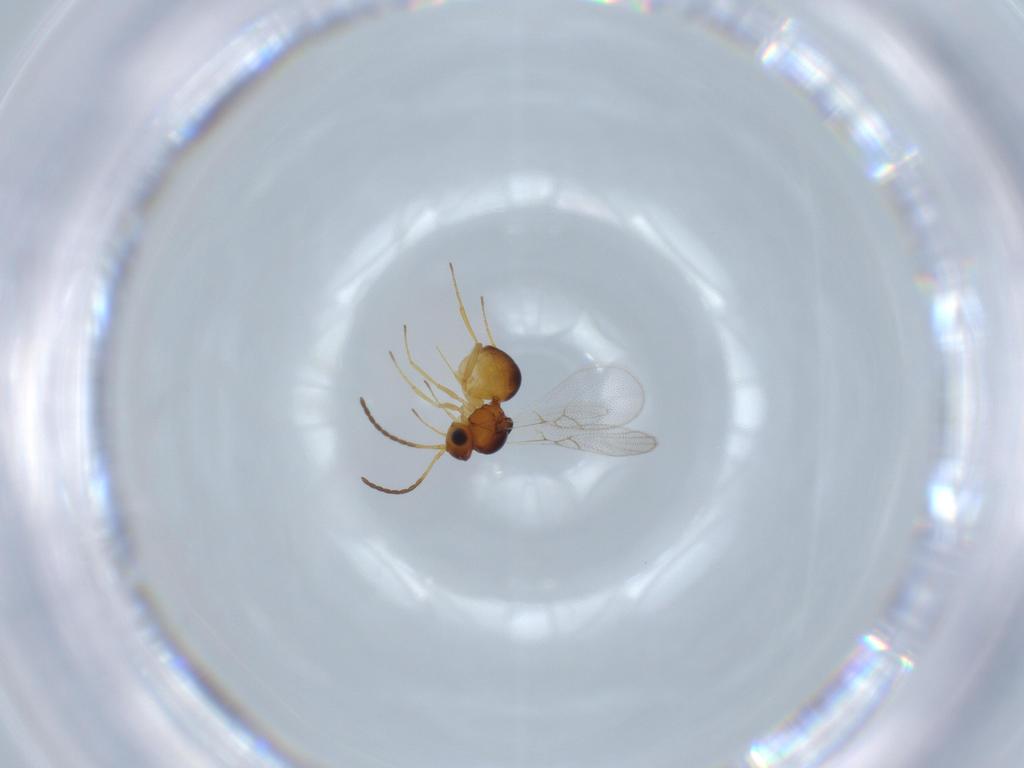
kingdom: Animalia
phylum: Arthropoda
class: Insecta
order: Hymenoptera
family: Figitidae
